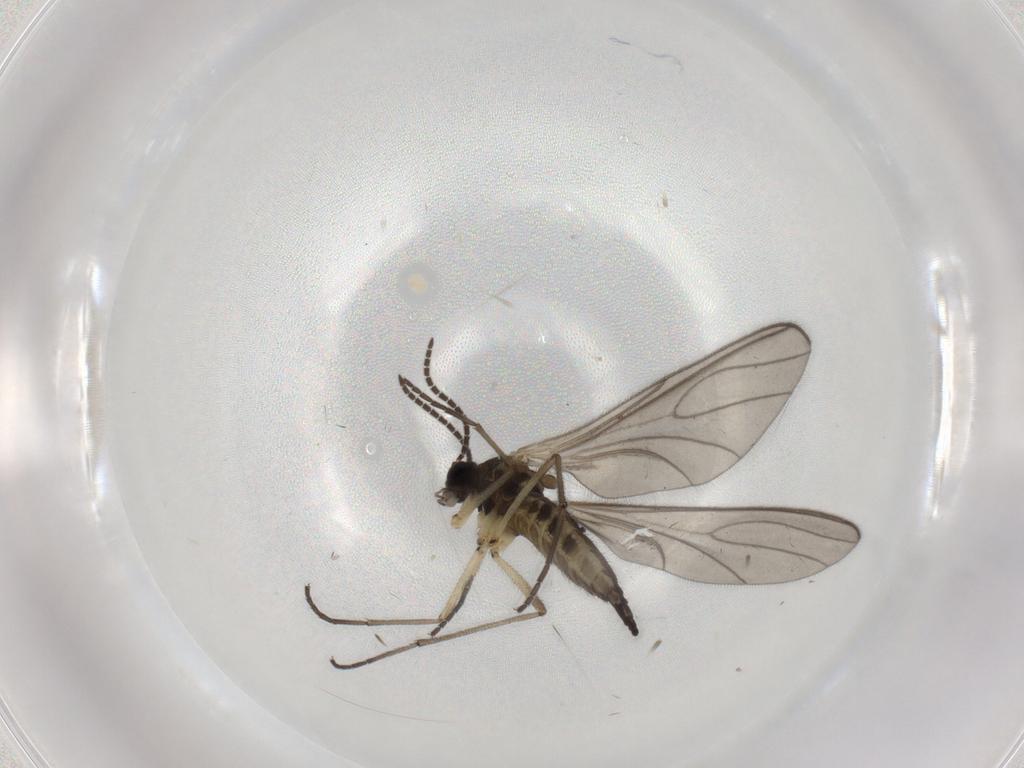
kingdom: Animalia
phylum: Arthropoda
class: Insecta
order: Diptera
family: Sciaridae
